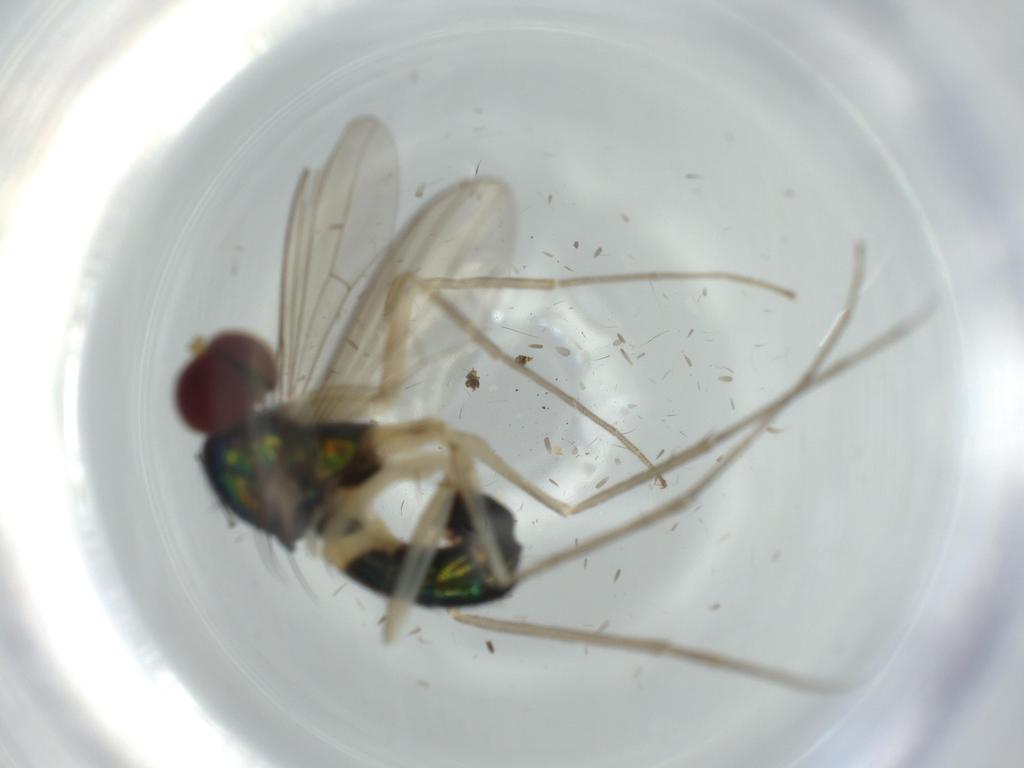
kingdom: Animalia
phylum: Arthropoda
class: Insecta
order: Diptera
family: Dolichopodidae
